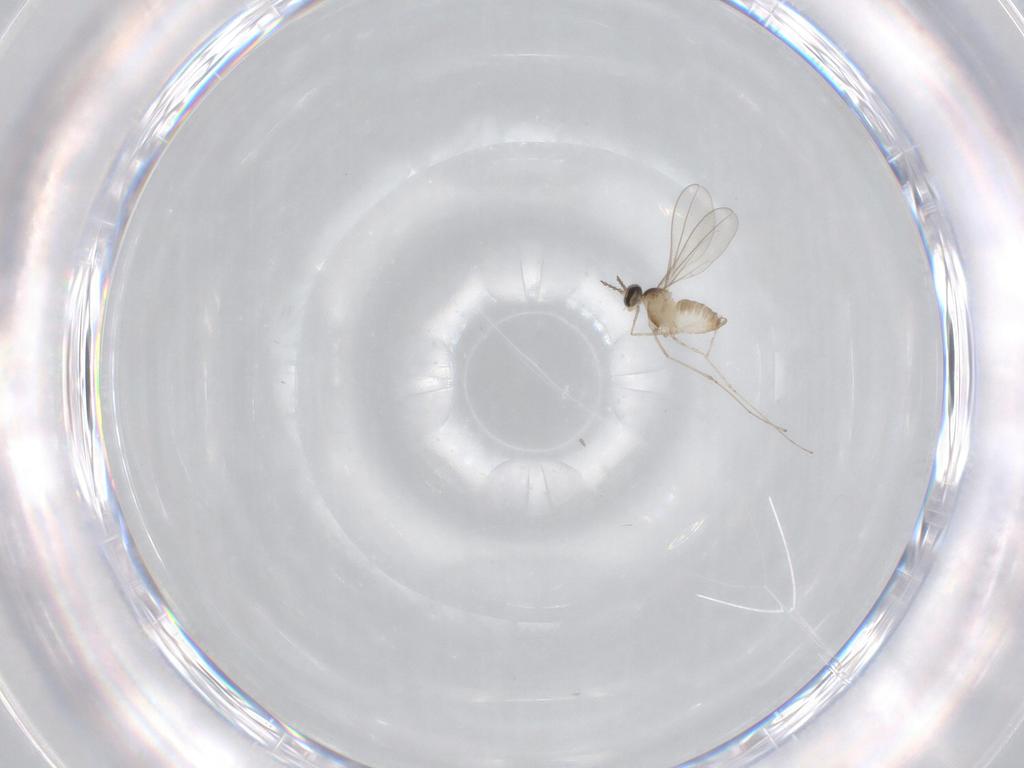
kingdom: Animalia
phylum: Arthropoda
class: Insecta
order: Diptera
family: Cecidomyiidae
